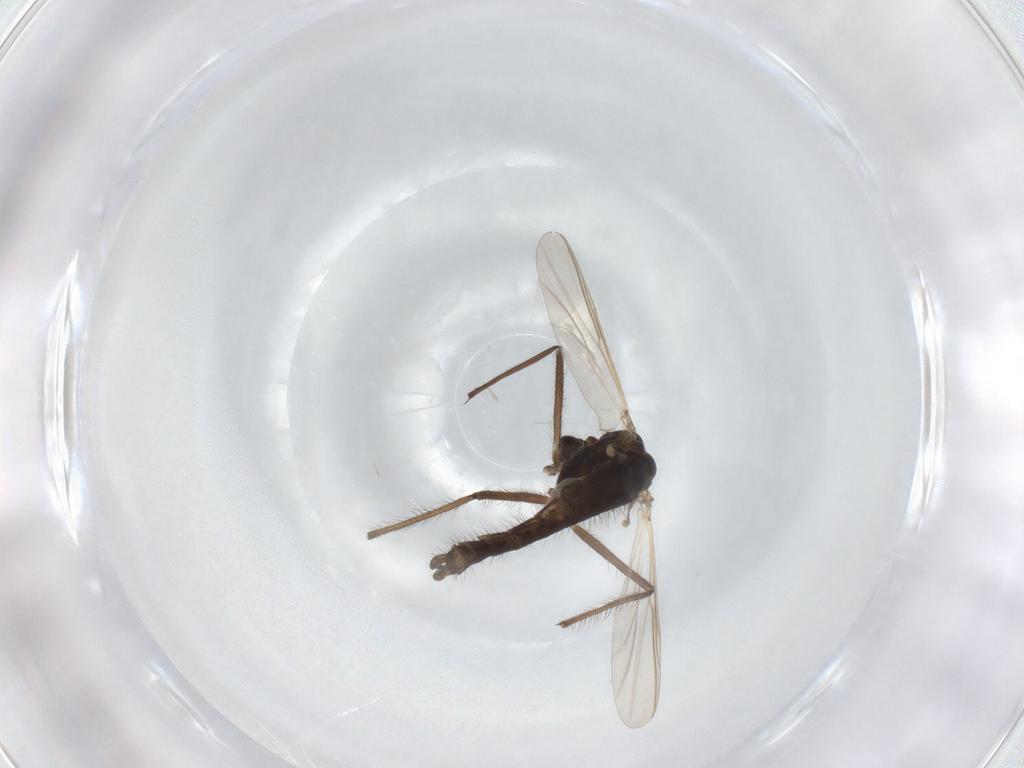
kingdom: Animalia
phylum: Arthropoda
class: Insecta
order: Diptera
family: Chironomidae
